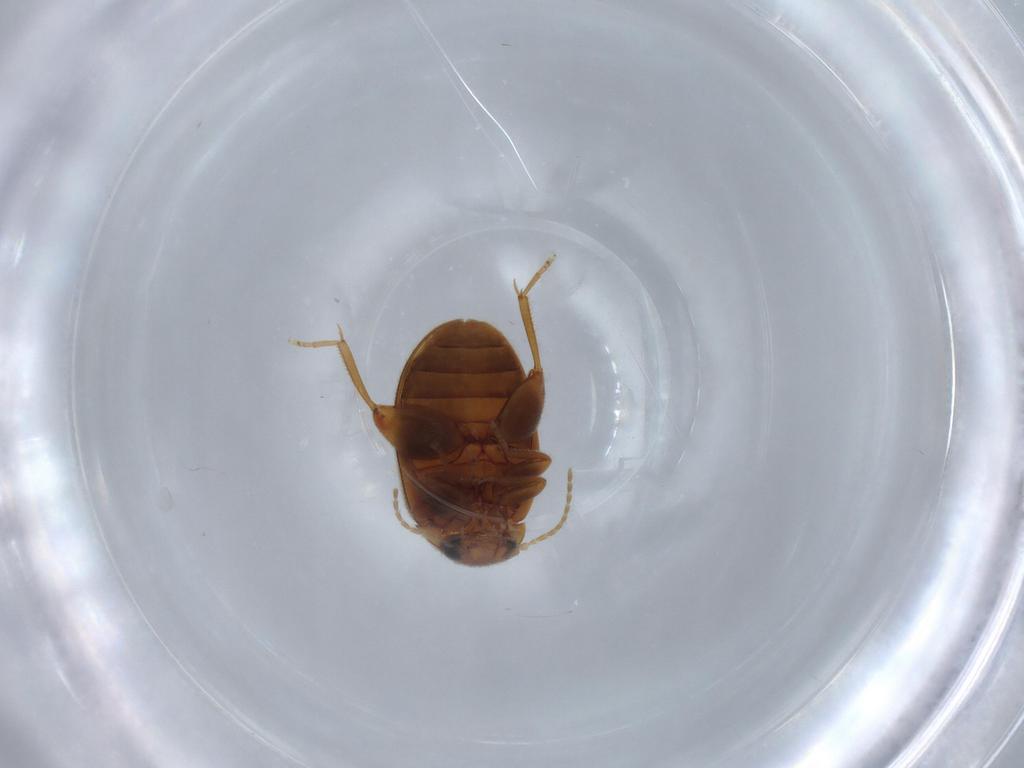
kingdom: Animalia
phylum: Arthropoda
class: Insecta
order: Coleoptera
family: Scirtidae
